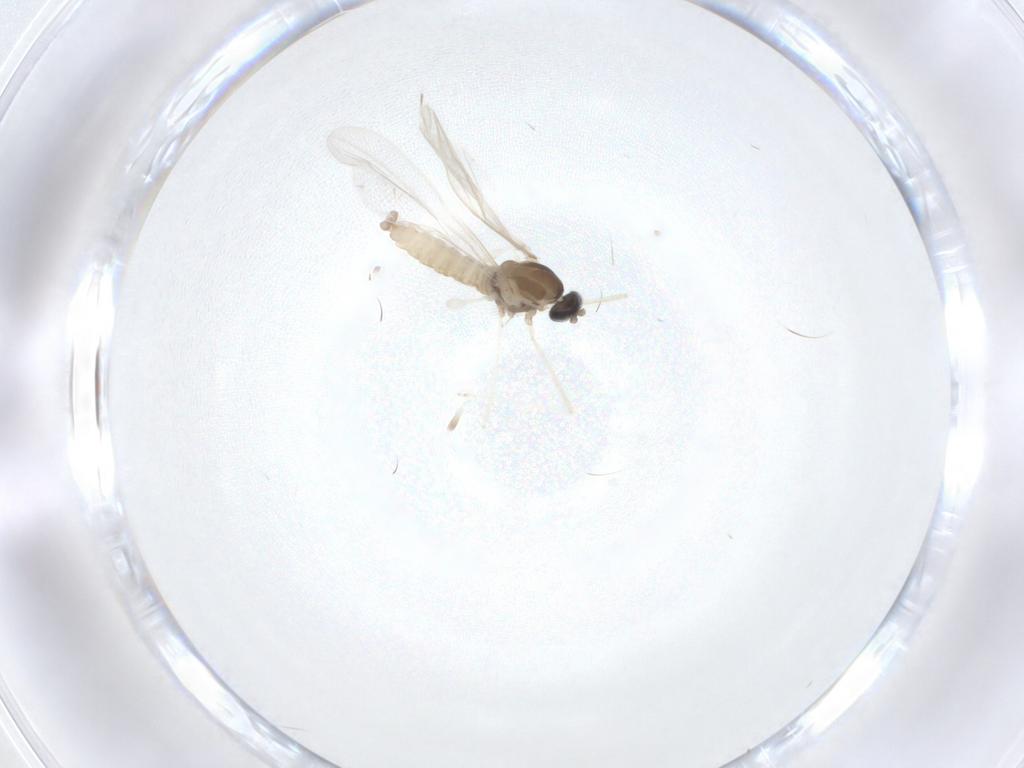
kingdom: Animalia
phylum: Arthropoda
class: Insecta
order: Diptera
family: Cecidomyiidae
